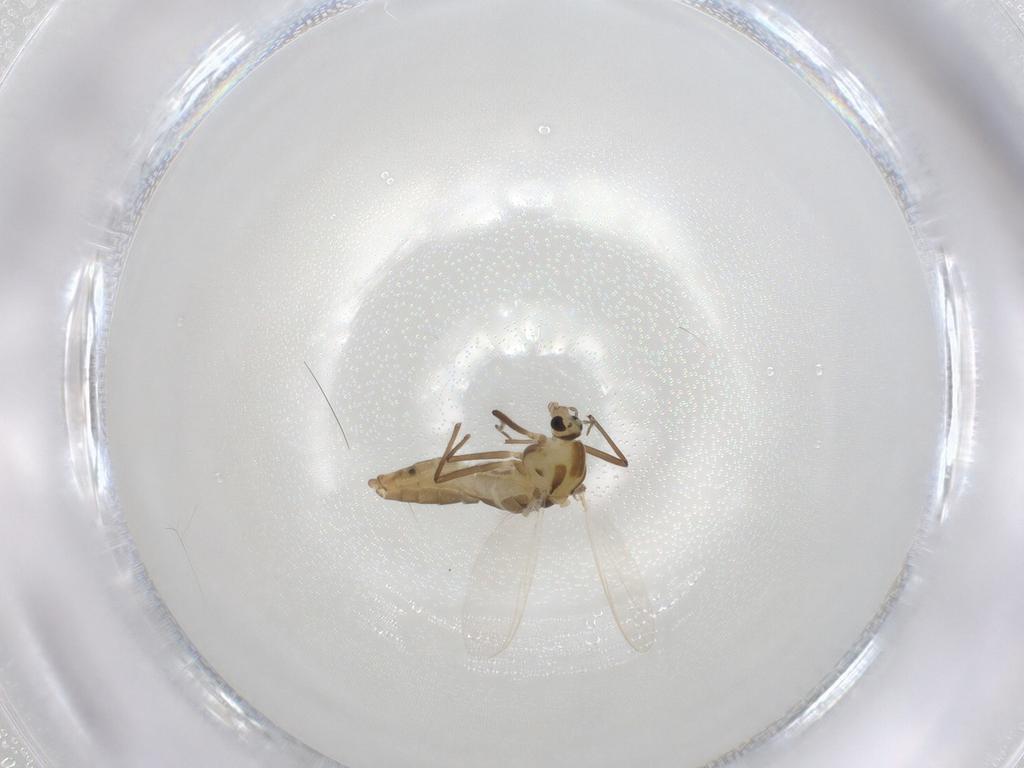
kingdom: Animalia
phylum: Arthropoda
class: Insecta
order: Diptera
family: Chironomidae
